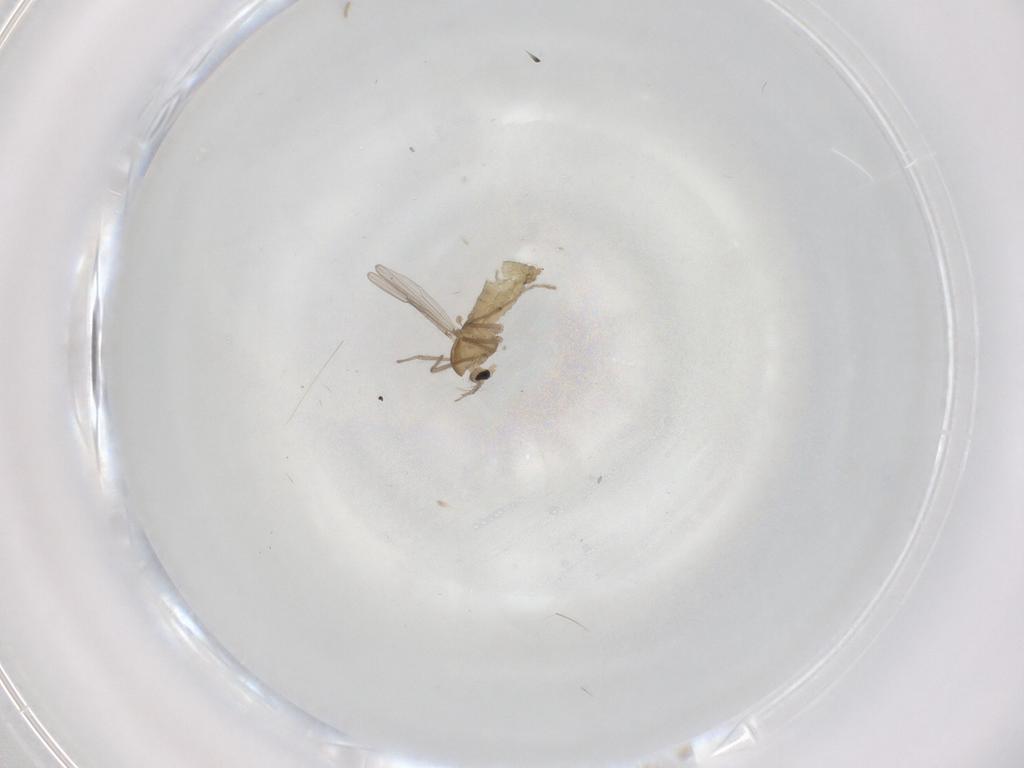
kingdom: Animalia
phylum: Arthropoda
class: Insecta
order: Diptera
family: Chironomidae
